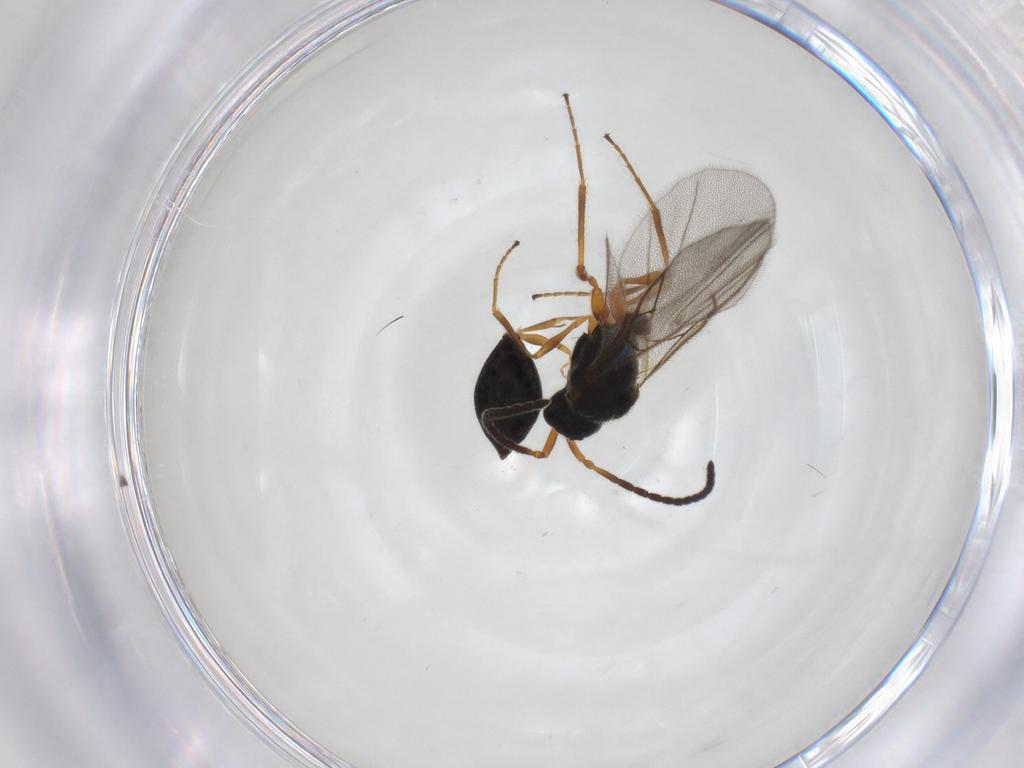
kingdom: Animalia
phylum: Arthropoda
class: Insecta
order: Hymenoptera
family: Diapriidae
